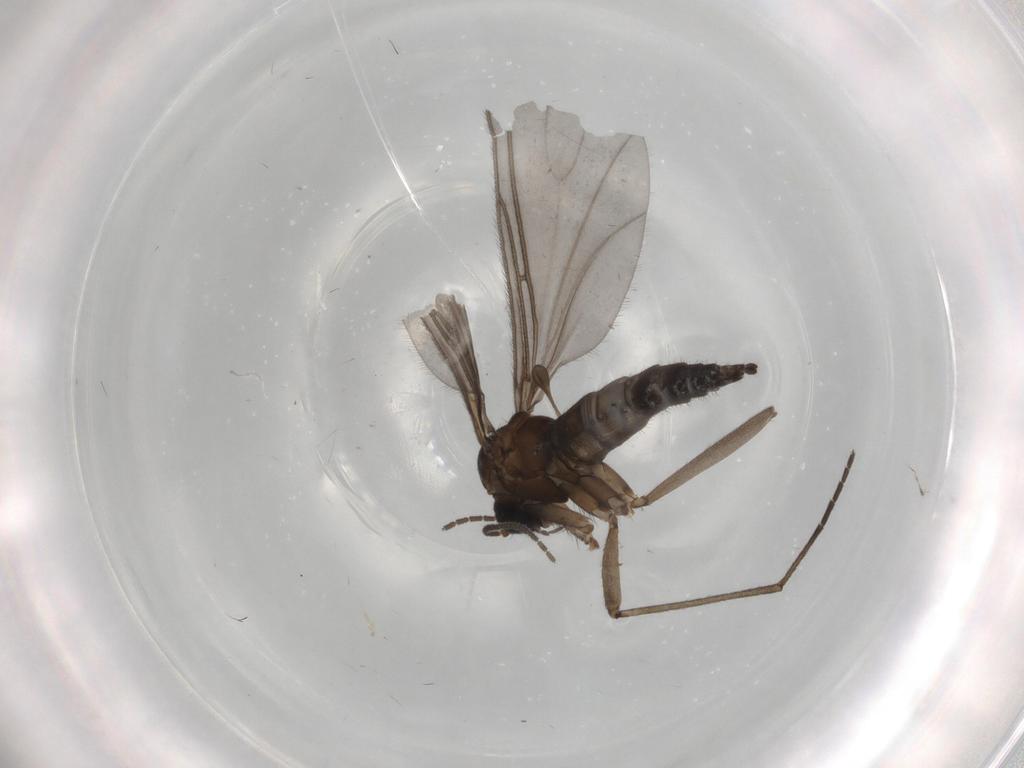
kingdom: Animalia
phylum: Arthropoda
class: Insecta
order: Diptera
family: Sciaridae
